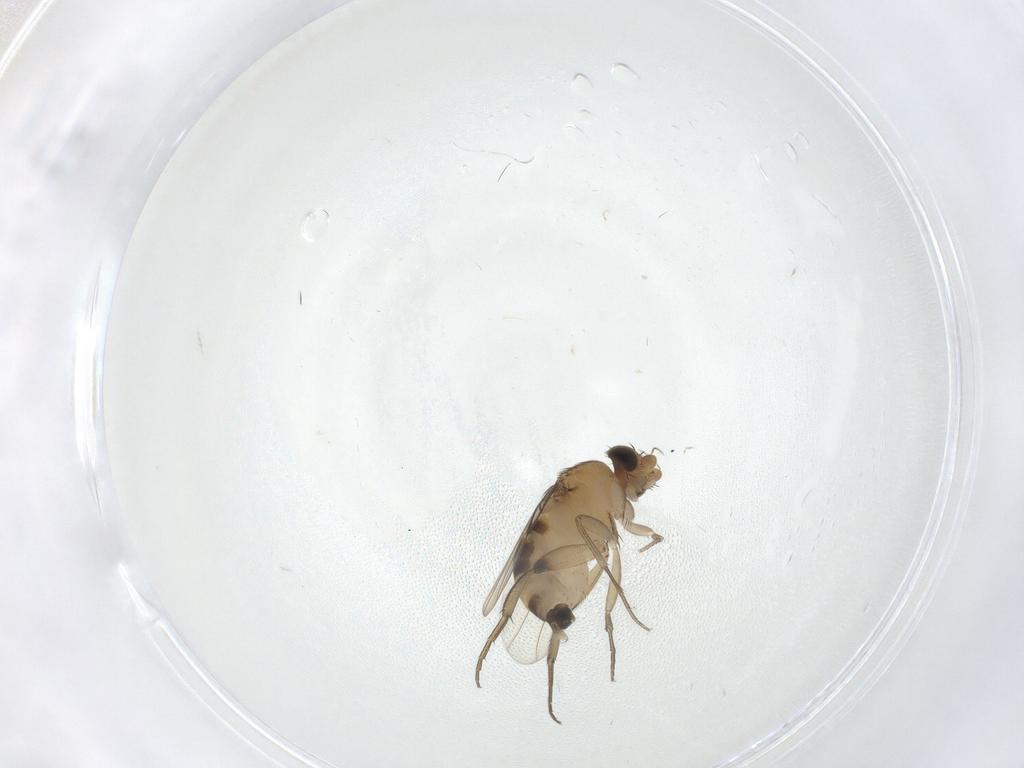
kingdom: Animalia
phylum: Arthropoda
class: Insecta
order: Diptera
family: Phoridae
